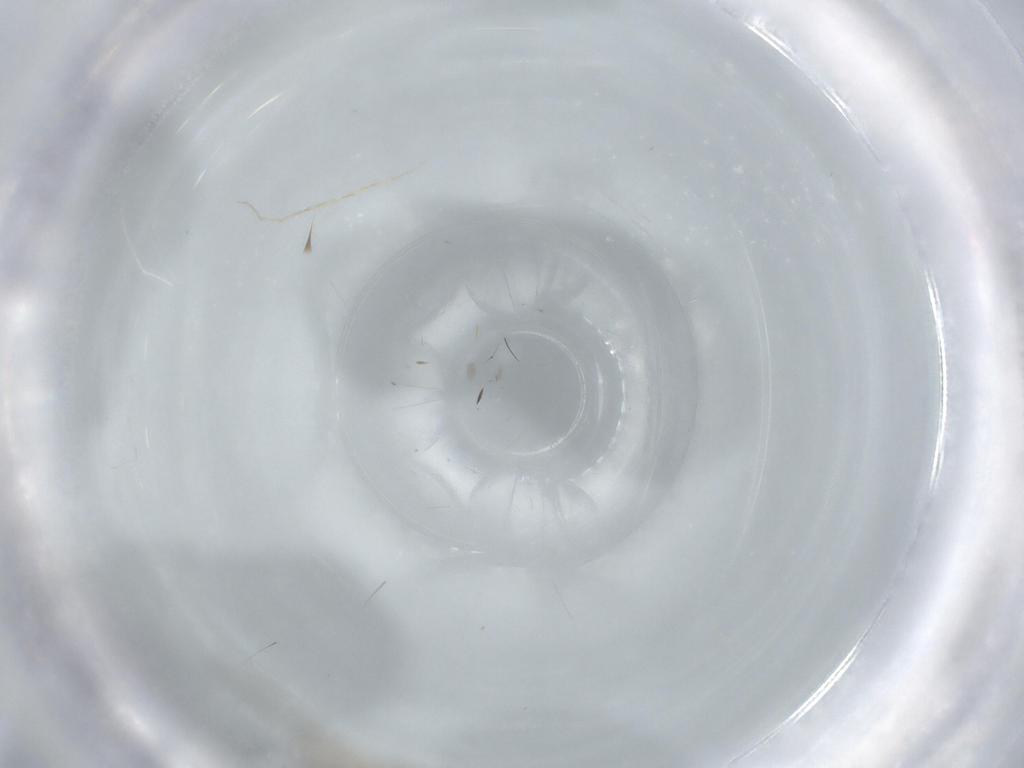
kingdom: Animalia
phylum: Arthropoda
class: Insecta
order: Diptera
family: Phoridae
